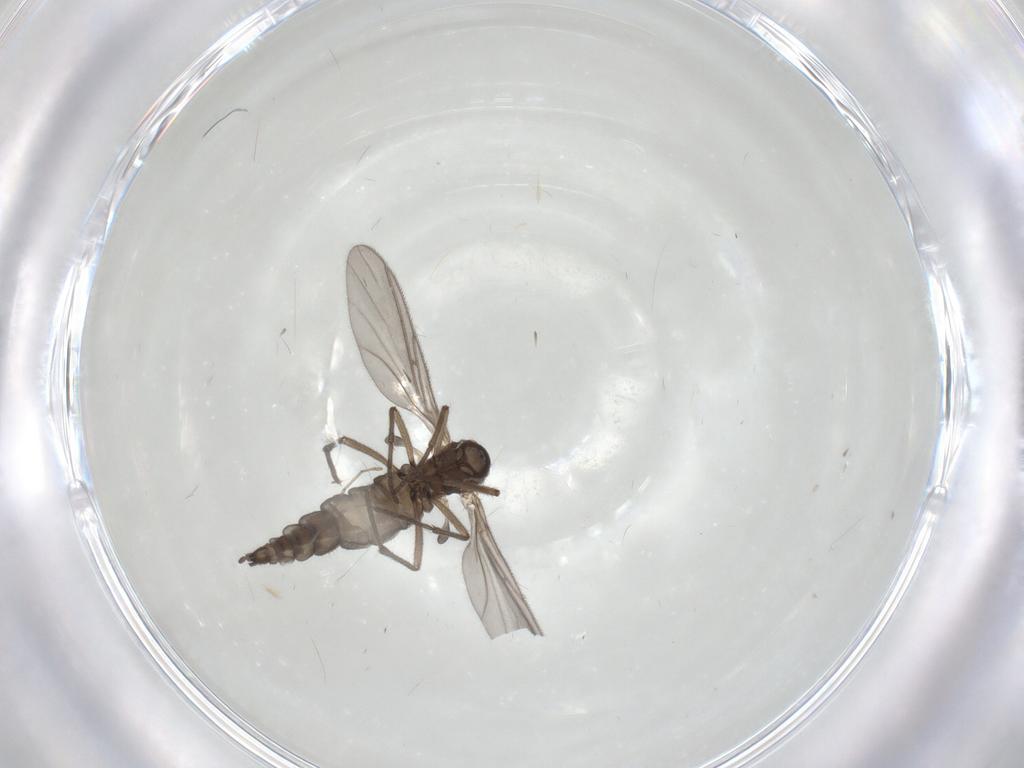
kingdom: Animalia
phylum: Arthropoda
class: Insecta
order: Diptera
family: Sciaridae
